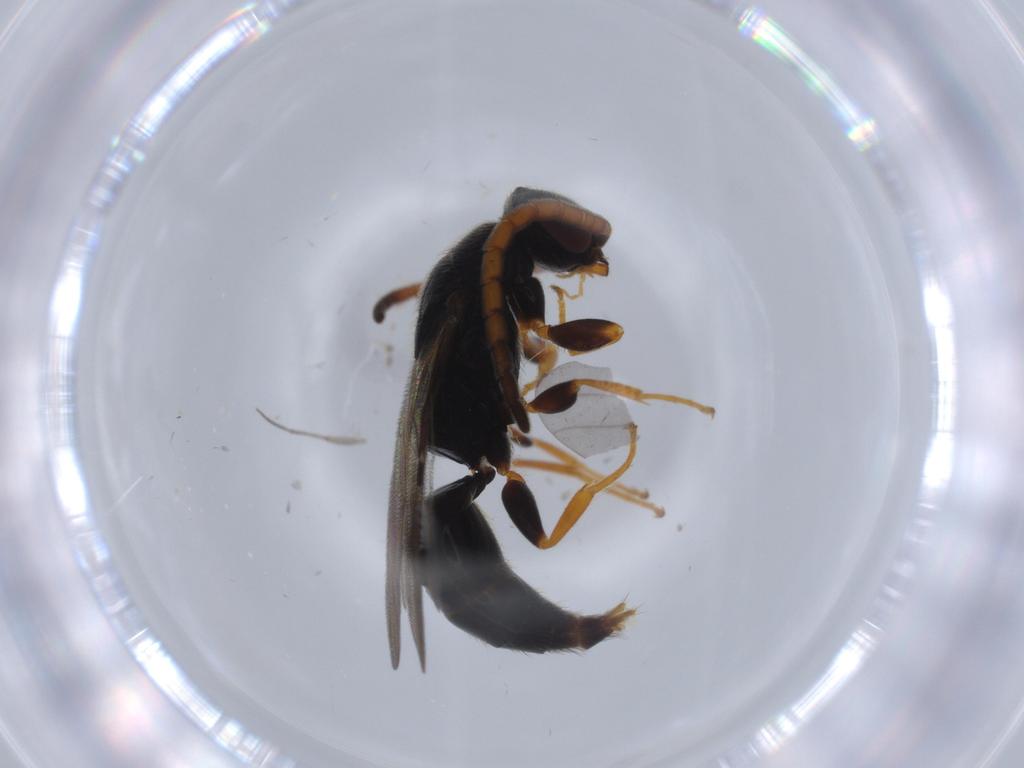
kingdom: Animalia
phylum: Arthropoda
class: Insecta
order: Hymenoptera
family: Bethylidae
